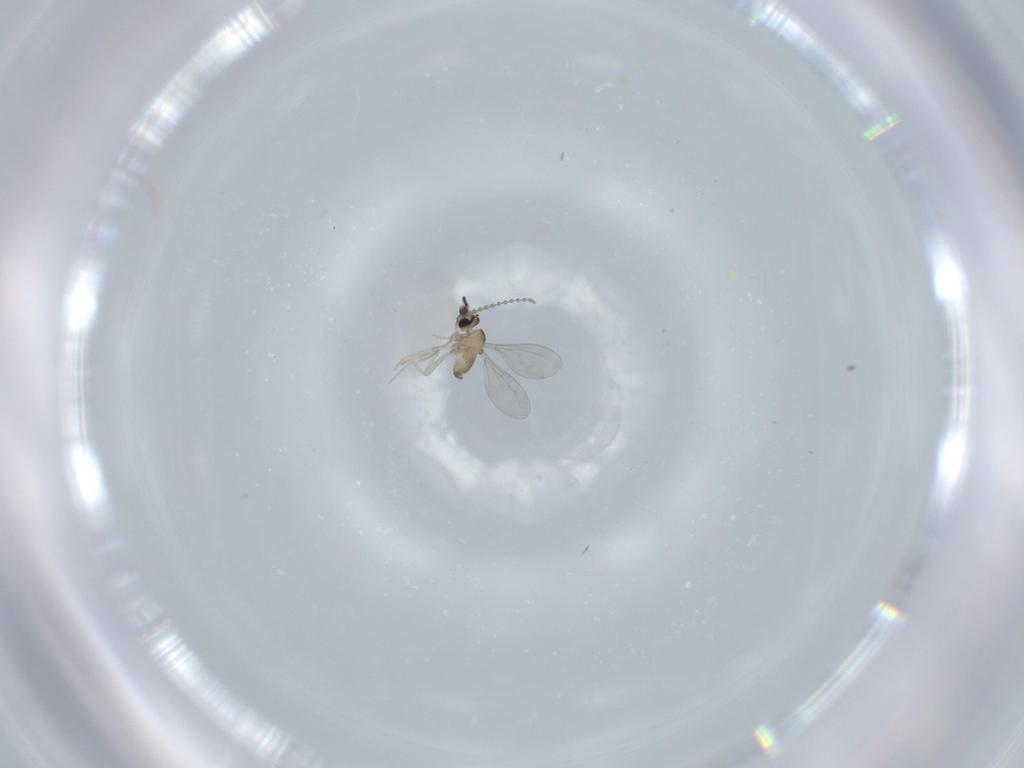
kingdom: Animalia
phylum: Arthropoda
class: Insecta
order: Diptera
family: Cecidomyiidae
